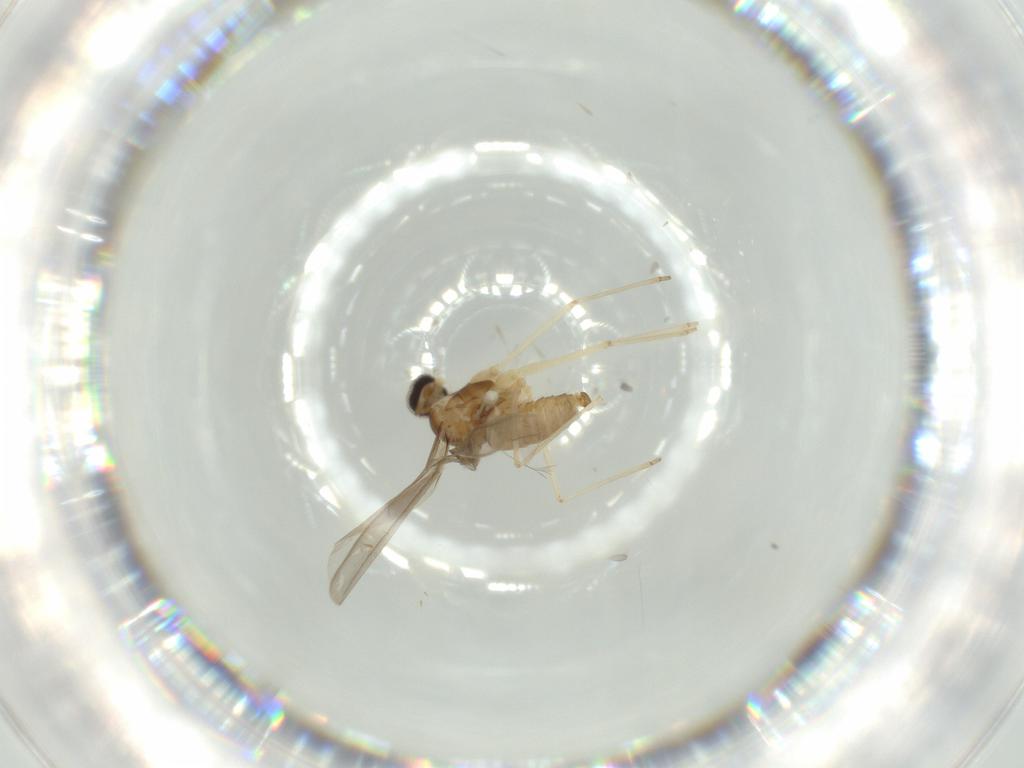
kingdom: Animalia
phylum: Arthropoda
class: Insecta
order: Diptera
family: Cecidomyiidae
